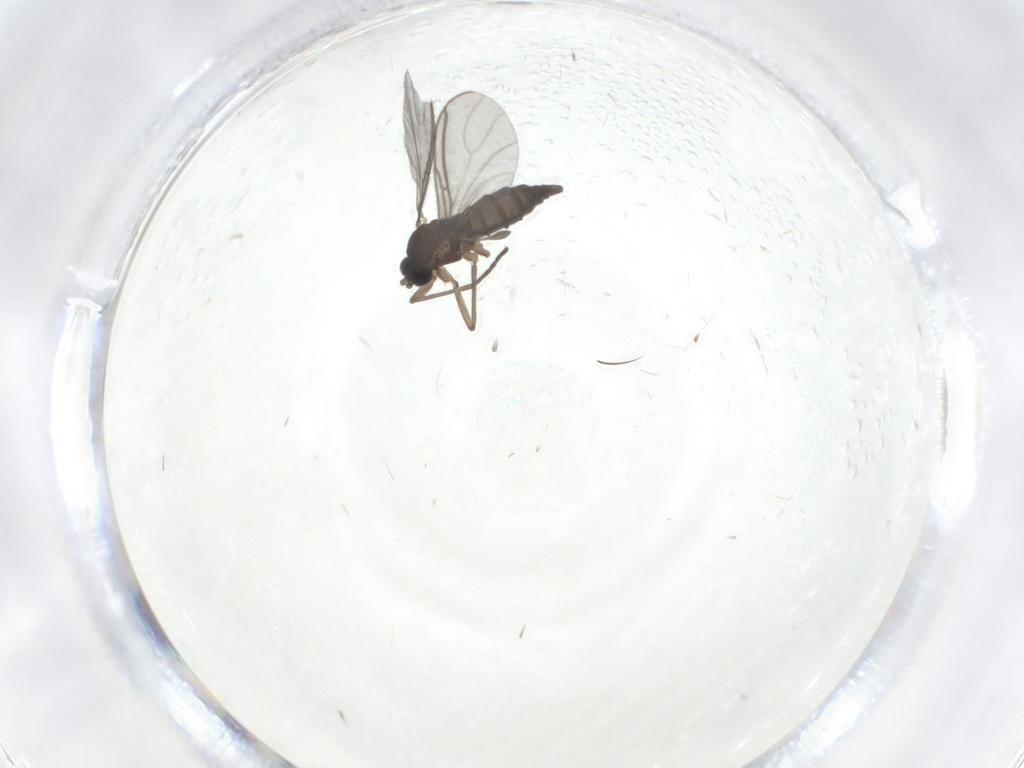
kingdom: Animalia
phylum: Arthropoda
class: Insecta
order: Diptera
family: Sciaridae
